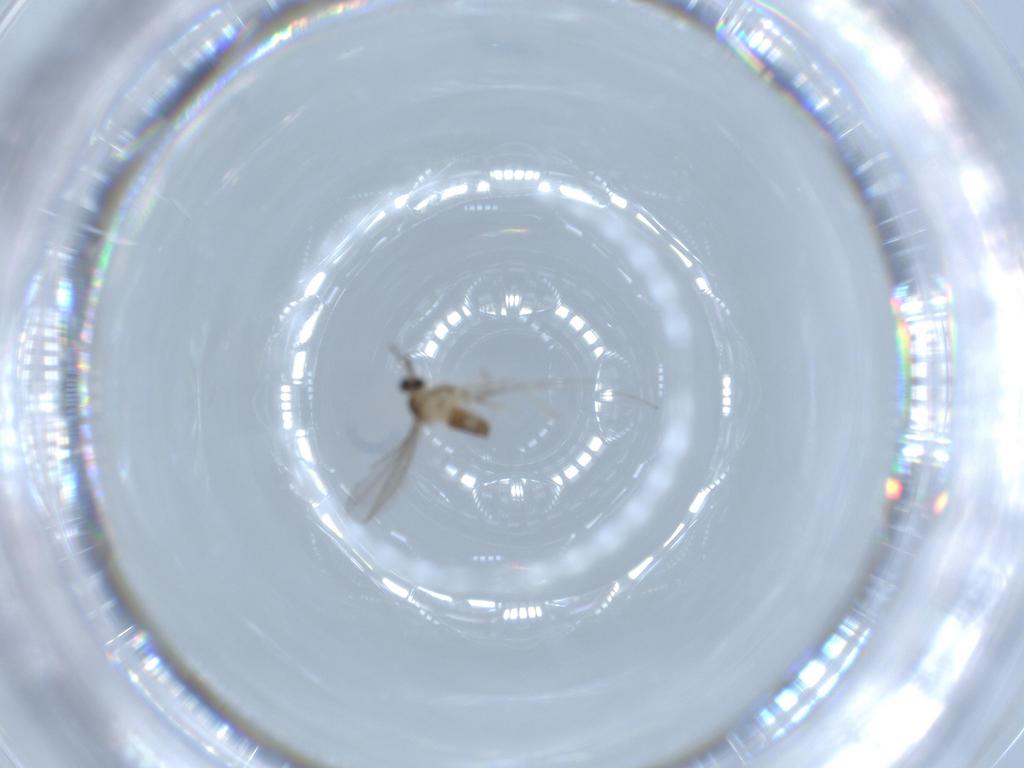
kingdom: Animalia
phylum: Arthropoda
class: Insecta
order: Diptera
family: Cecidomyiidae
